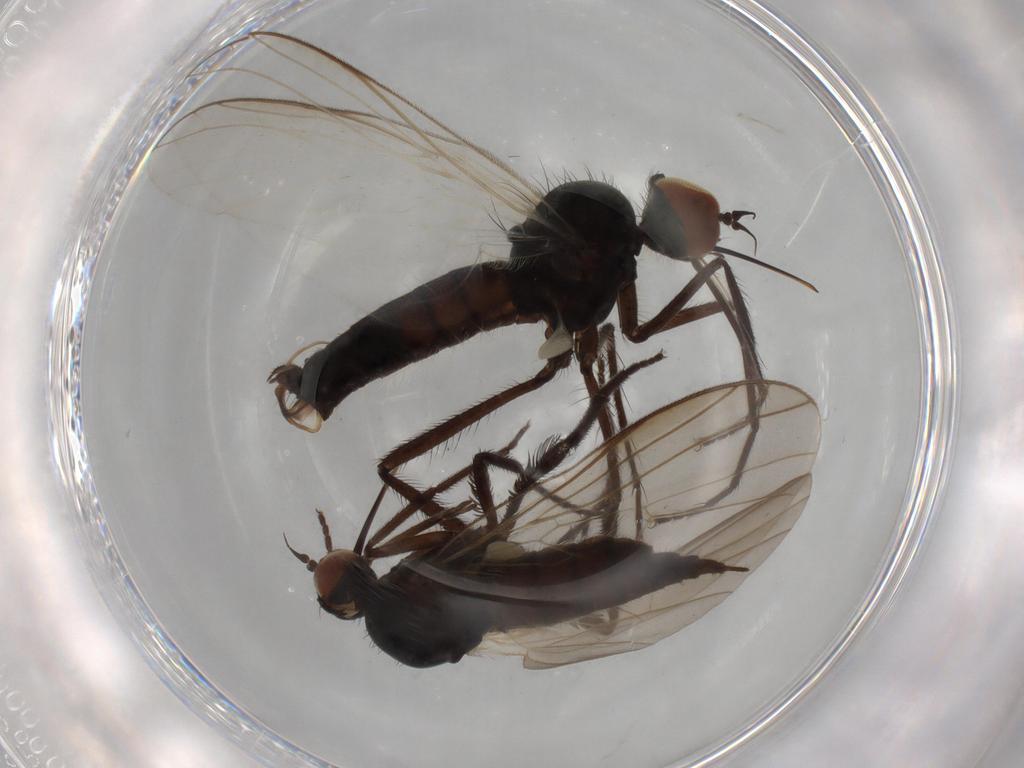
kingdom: Animalia
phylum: Arthropoda
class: Insecta
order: Diptera
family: Empididae
